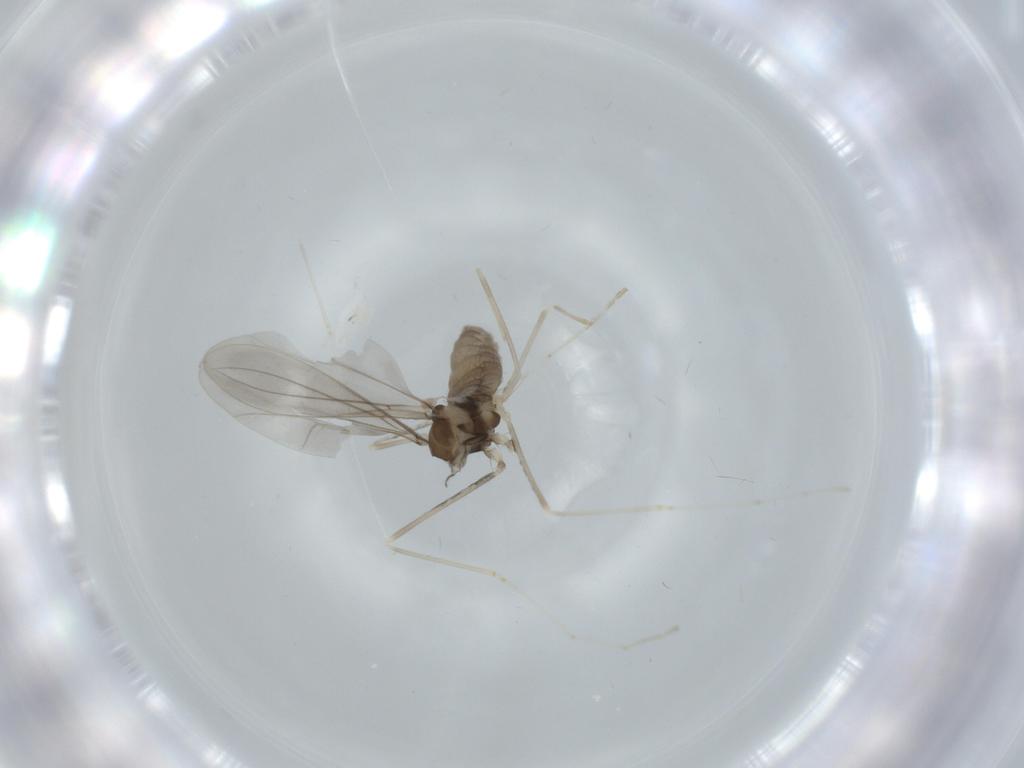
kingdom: Animalia
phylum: Arthropoda
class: Insecta
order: Diptera
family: Cecidomyiidae
